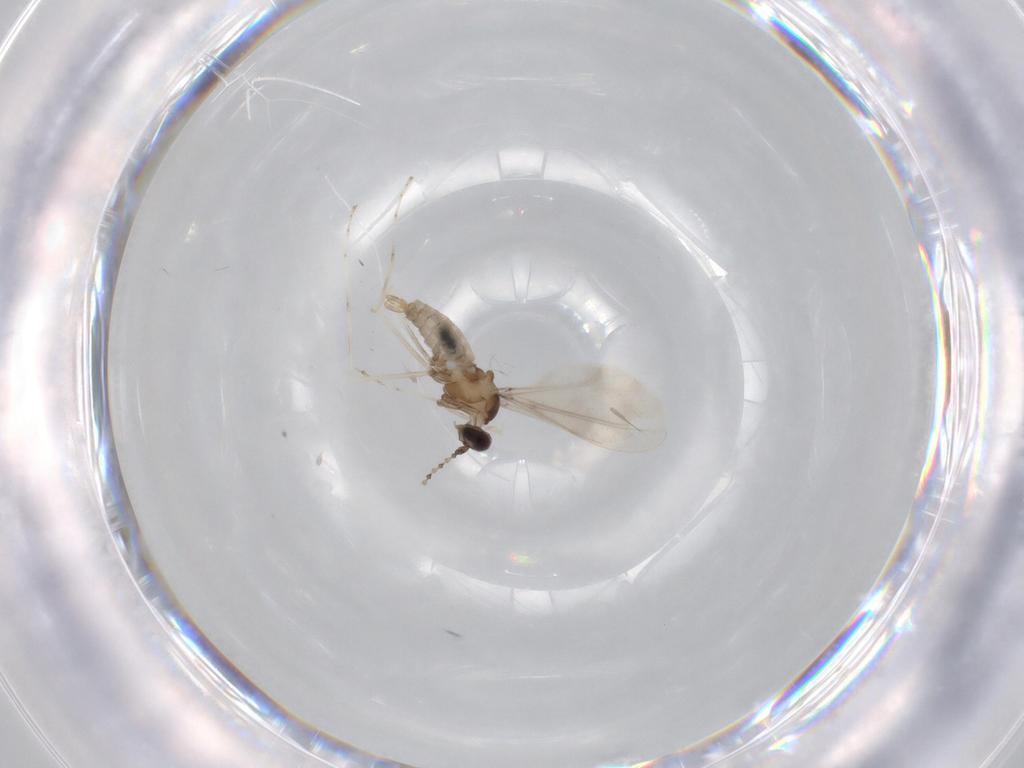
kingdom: Animalia
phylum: Arthropoda
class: Insecta
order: Diptera
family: Cecidomyiidae
